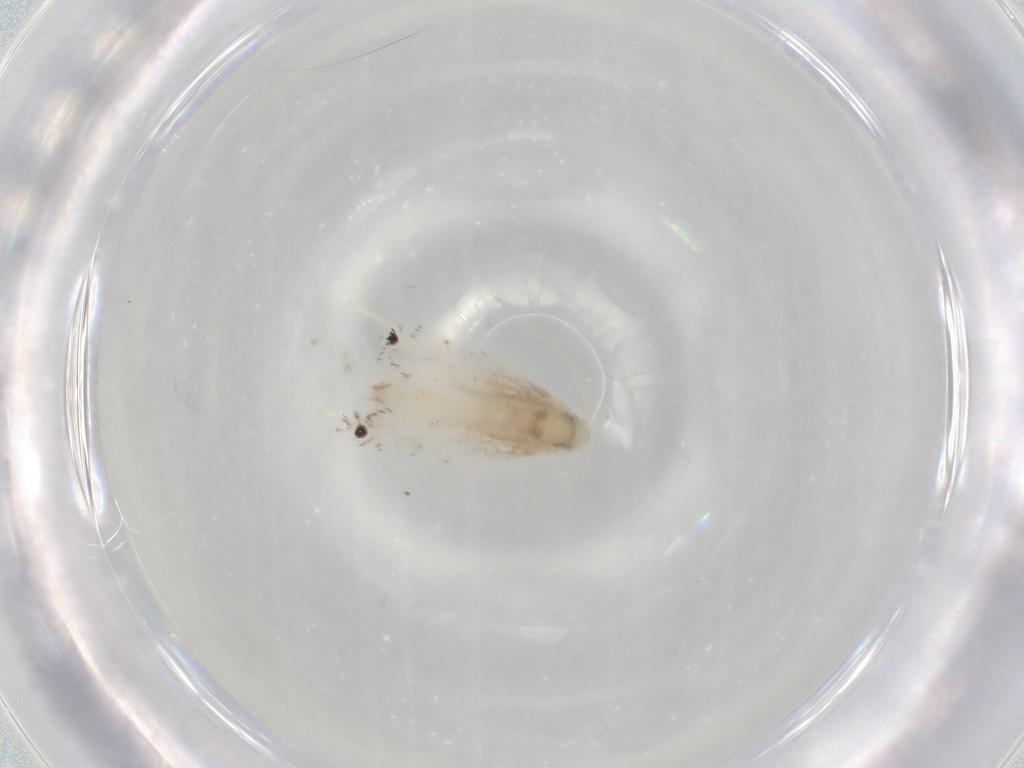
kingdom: Animalia
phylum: Arthropoda
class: Insecta
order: Lepidoptera
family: Gracillariidae
